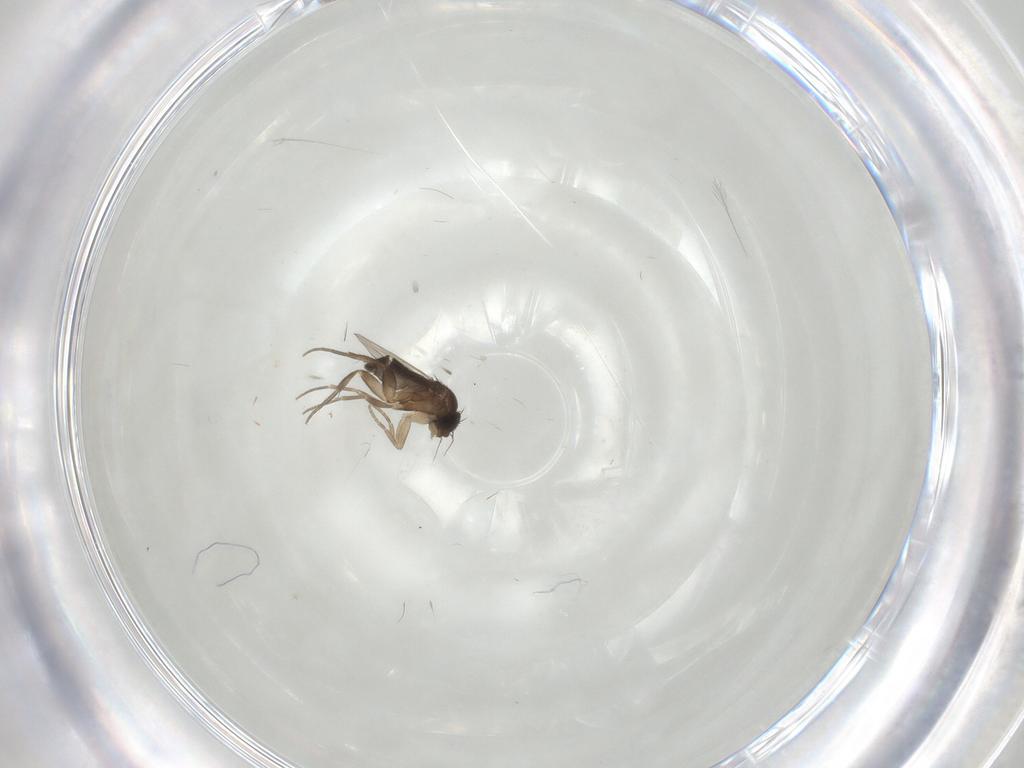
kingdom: Animalia
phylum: Arthropoda
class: Insecta
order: Diptera
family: Phoridae
